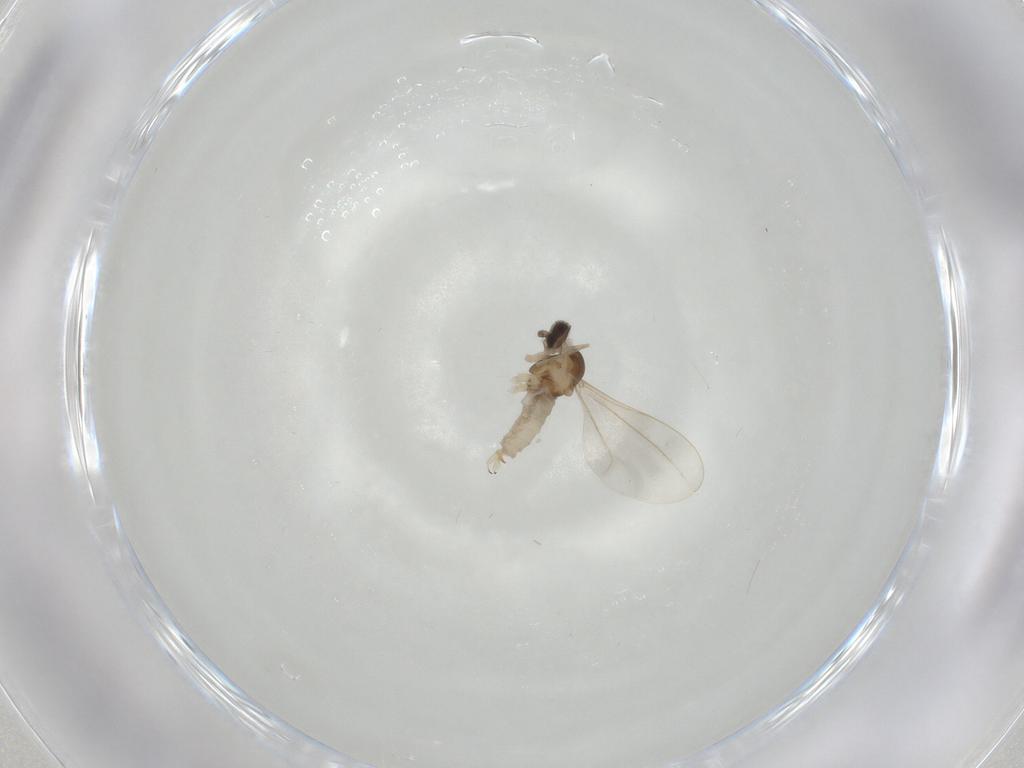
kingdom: Animalia
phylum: Arthropoda
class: Insecta
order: Diptera
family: Cecidomyiidae
